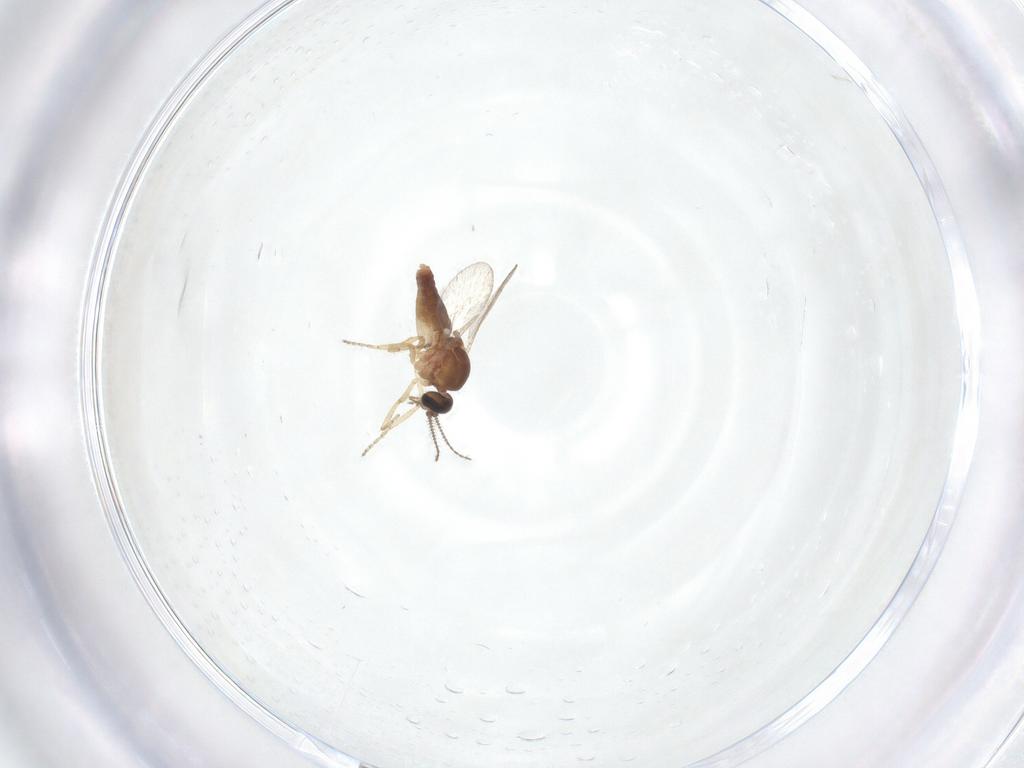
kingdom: Animalia
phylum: Arthropoda
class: Insecta
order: Diptera
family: Ceratopogonidae
